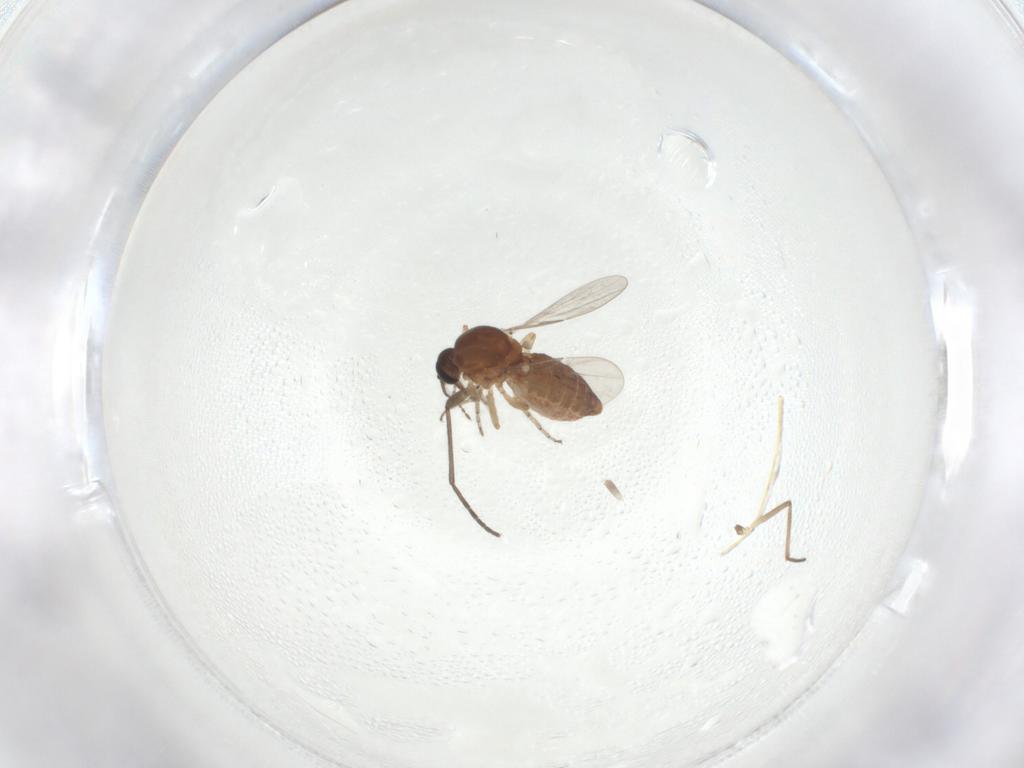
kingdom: Animalia
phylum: Arthropoda
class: Insecta
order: Diptera
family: Ceratopogonidae
